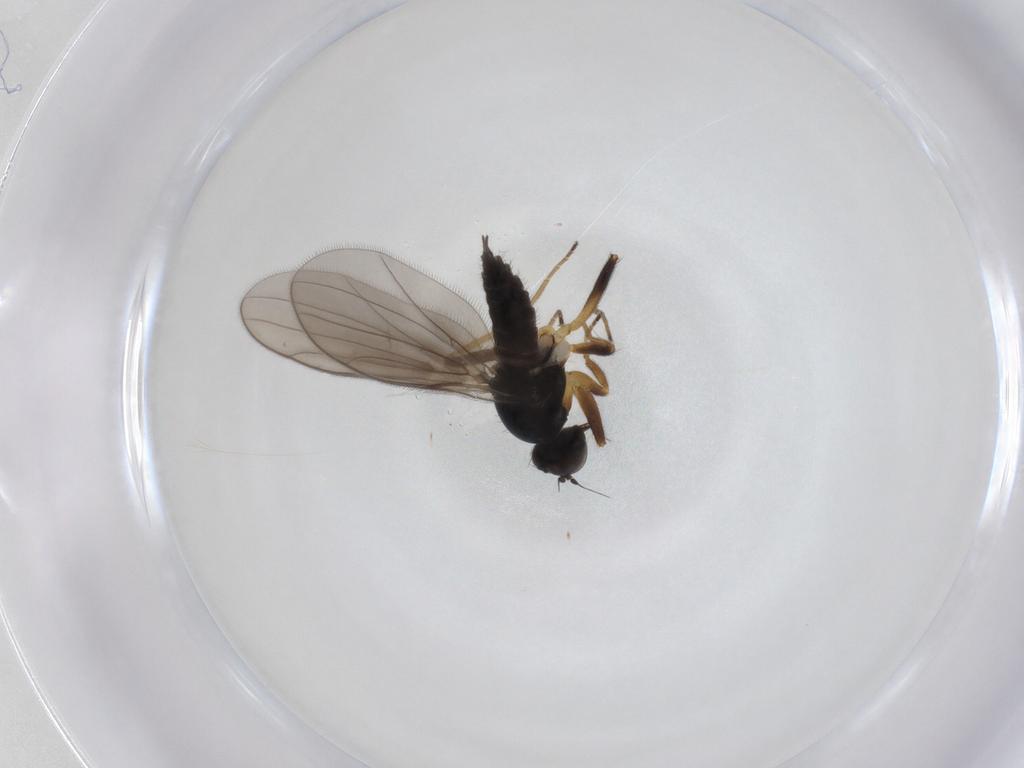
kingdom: Animalia
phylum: Arthropoda
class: Insecta
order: Diptera
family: Hybotidae
